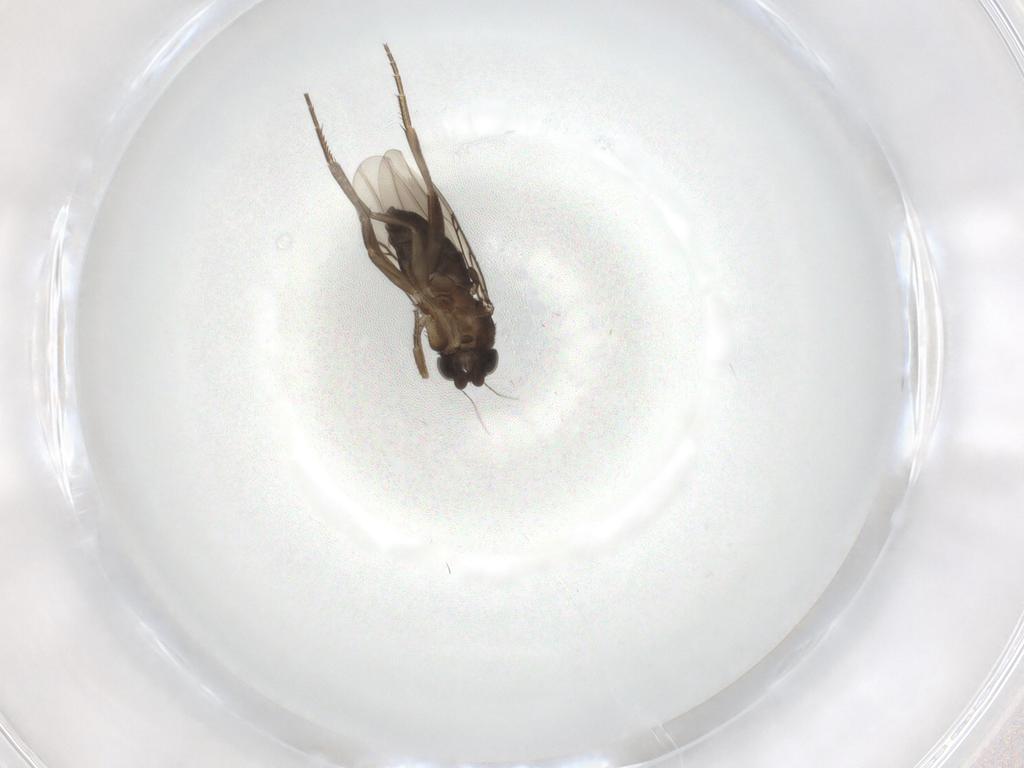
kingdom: Animalia
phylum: Arthropoda
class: Insecta
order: Diptera
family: Phoridae
